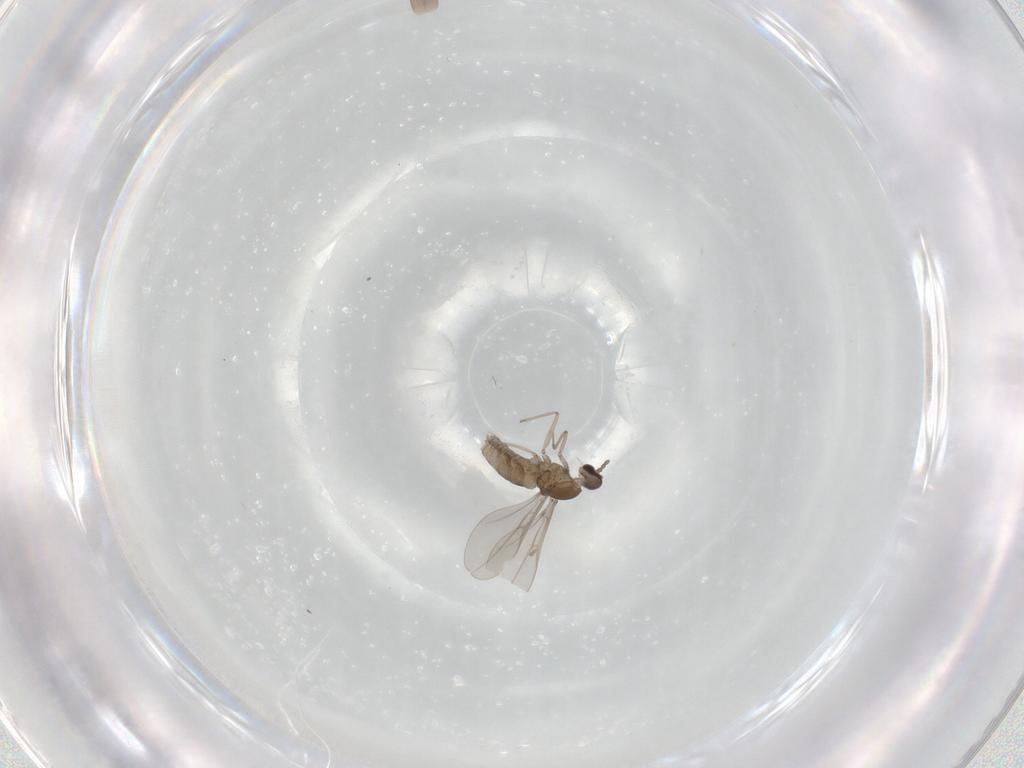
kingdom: Animalia
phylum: Arthropoda
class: Insecta
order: Diptera
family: Cecidomyiidae
